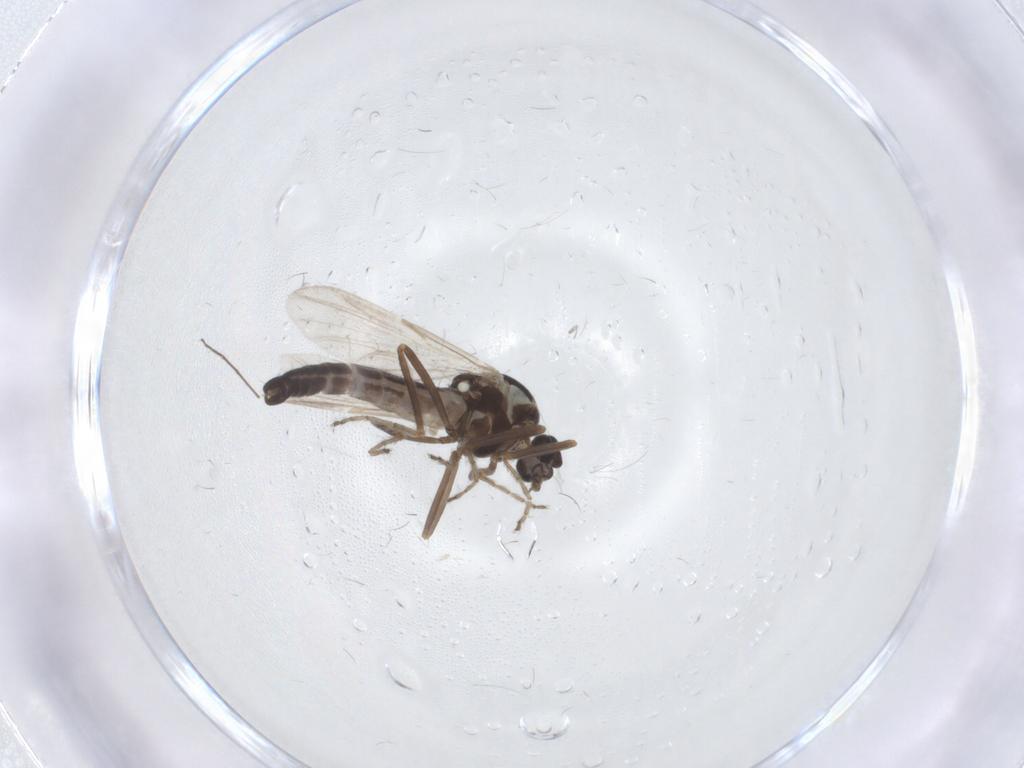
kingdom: Animalia
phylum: Arthropoda
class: Insecta
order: Diptera
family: Ceratopogonidae
